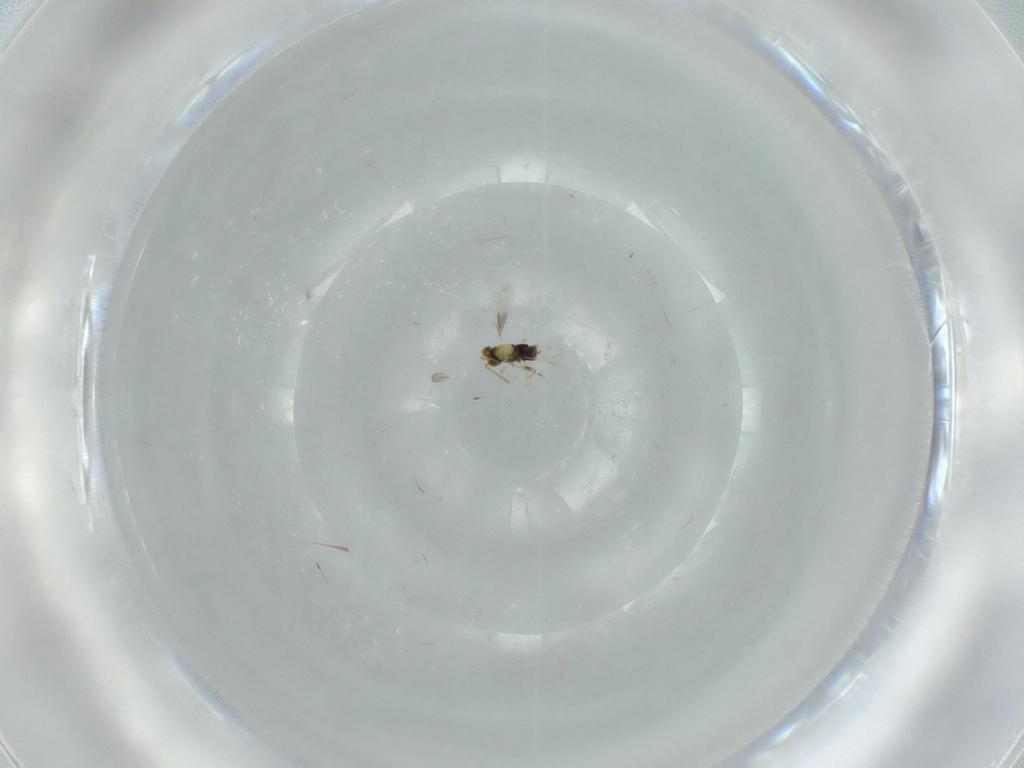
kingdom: Animalia
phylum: Arthropoda
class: Insecta
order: Hymenoptera
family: Aphelinidae
